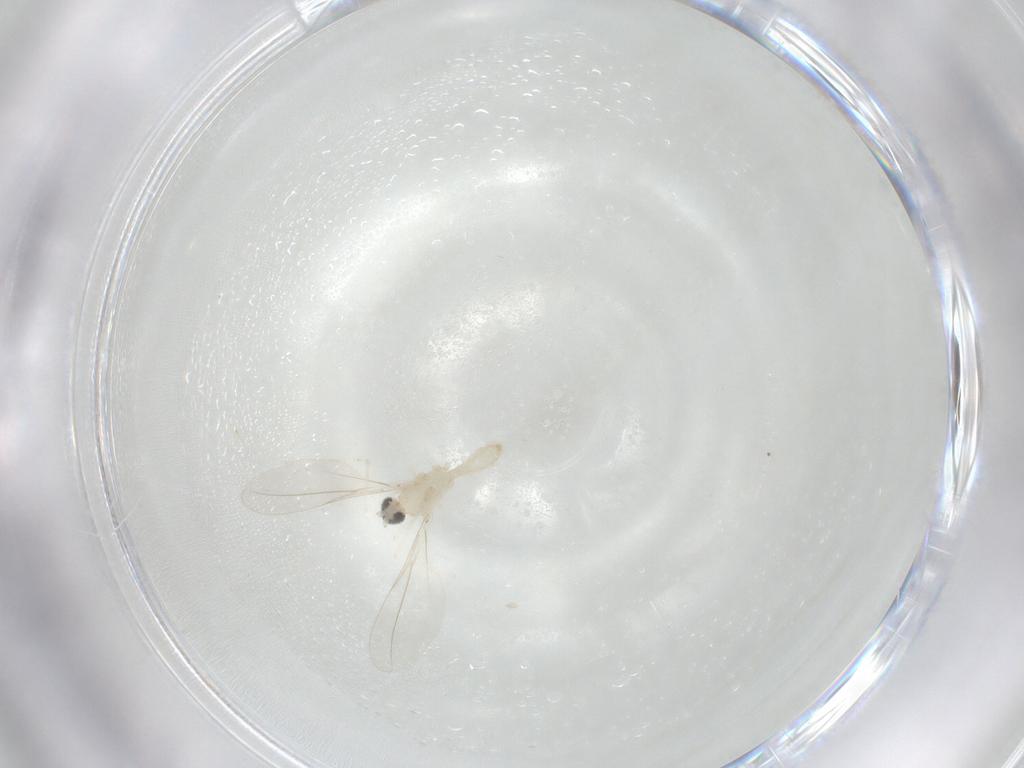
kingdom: Animalia
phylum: Arthropoda
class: Insecta
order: Diptera
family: Cecidomyiidae
